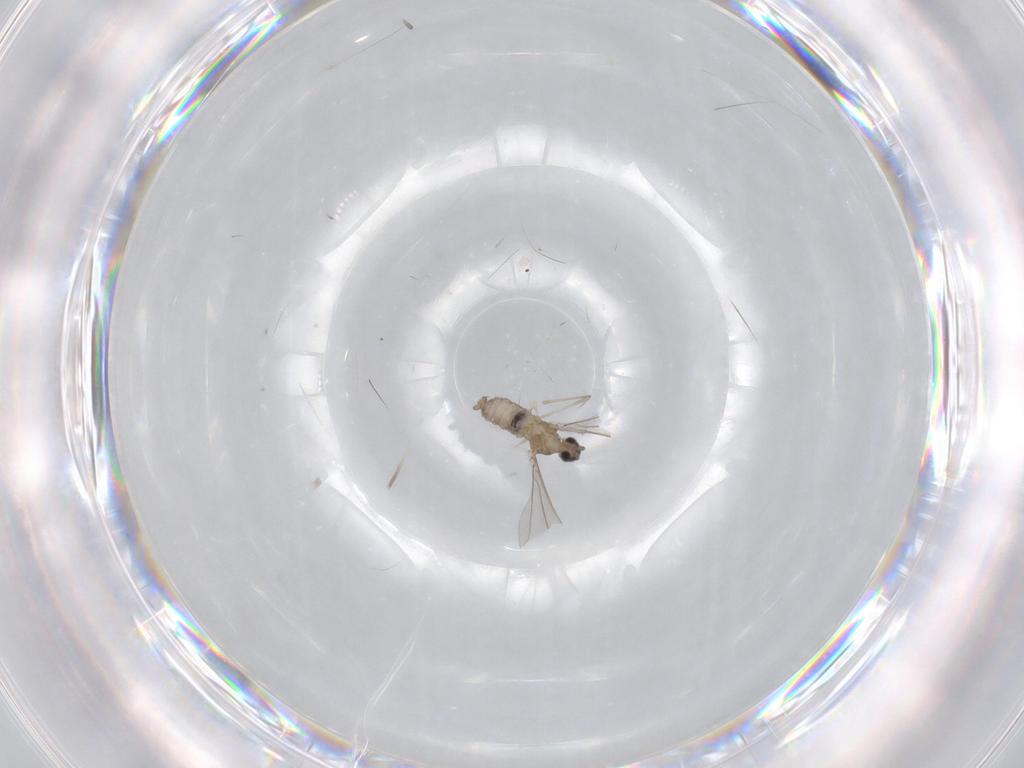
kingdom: Animalia
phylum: Arthropoda
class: Insecta
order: Diptera
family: Cecidomyiidae
